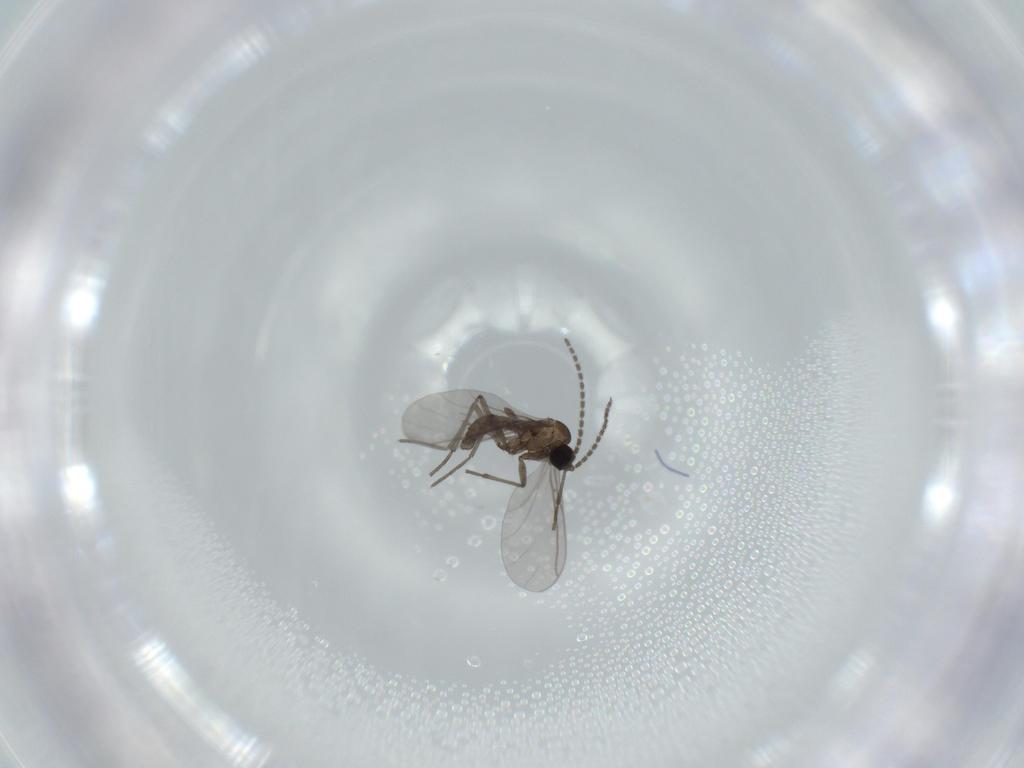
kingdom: Animalia
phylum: Arthropoda
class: Insecta
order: Diptera
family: Sciaridae
